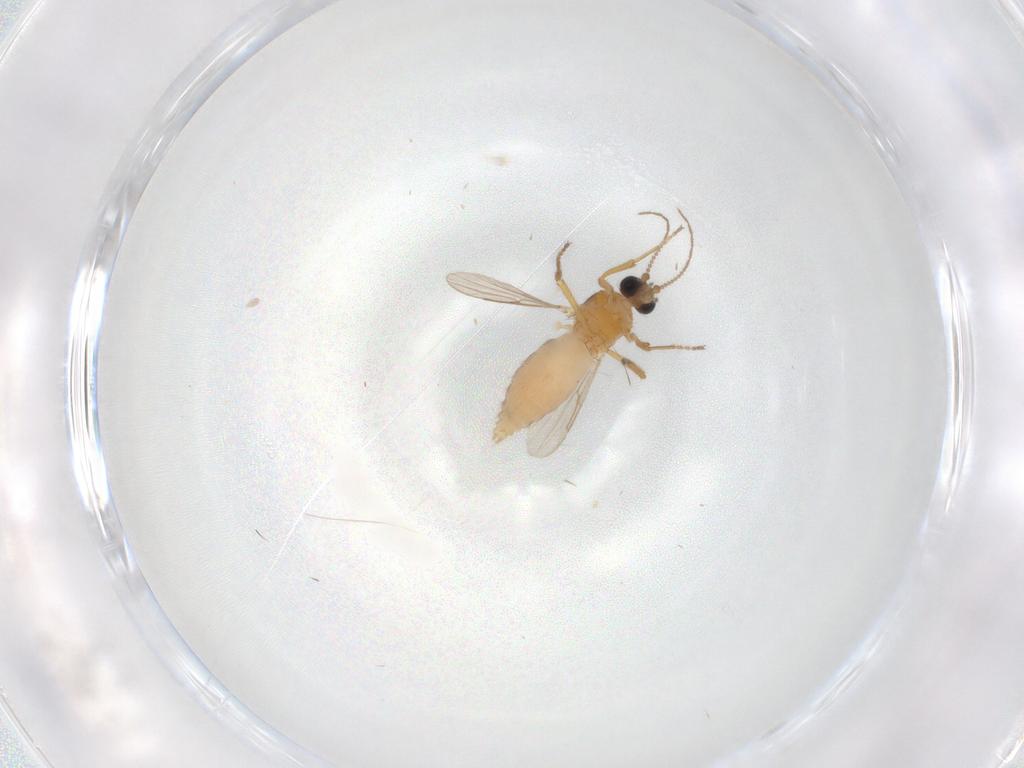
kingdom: Animalia
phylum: Arthropoda
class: Insecta
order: Diptera
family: Ceratopogonidae
